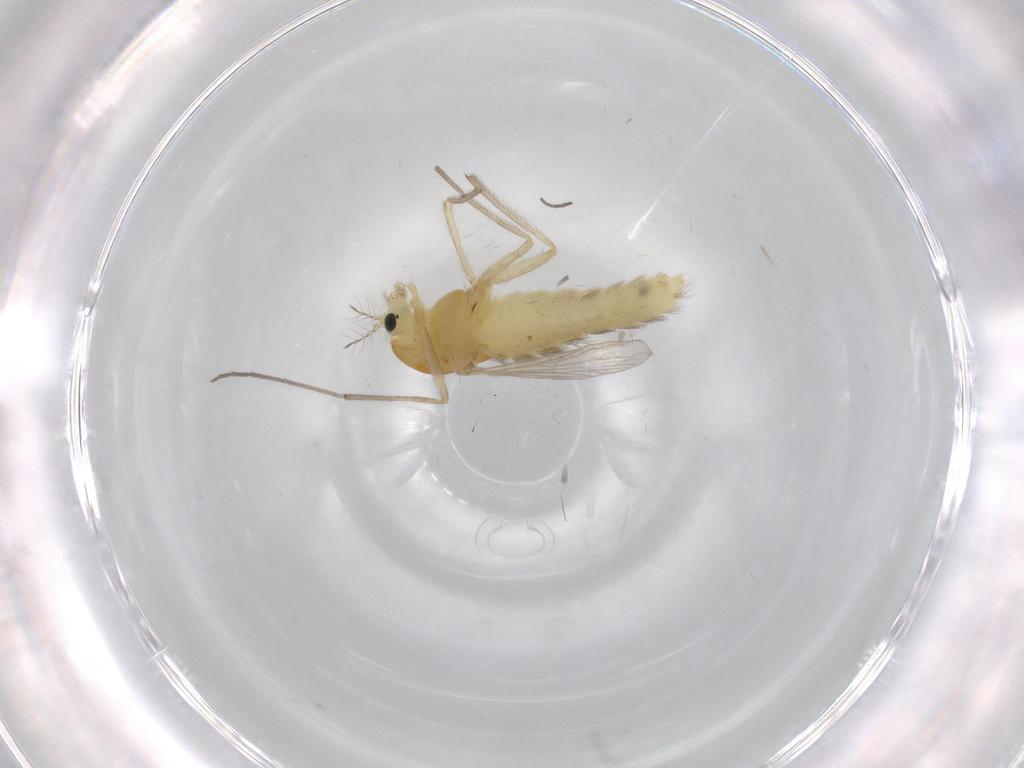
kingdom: Animalia
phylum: Arthropoda
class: Insecta
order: Diptera
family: Chironomidae
